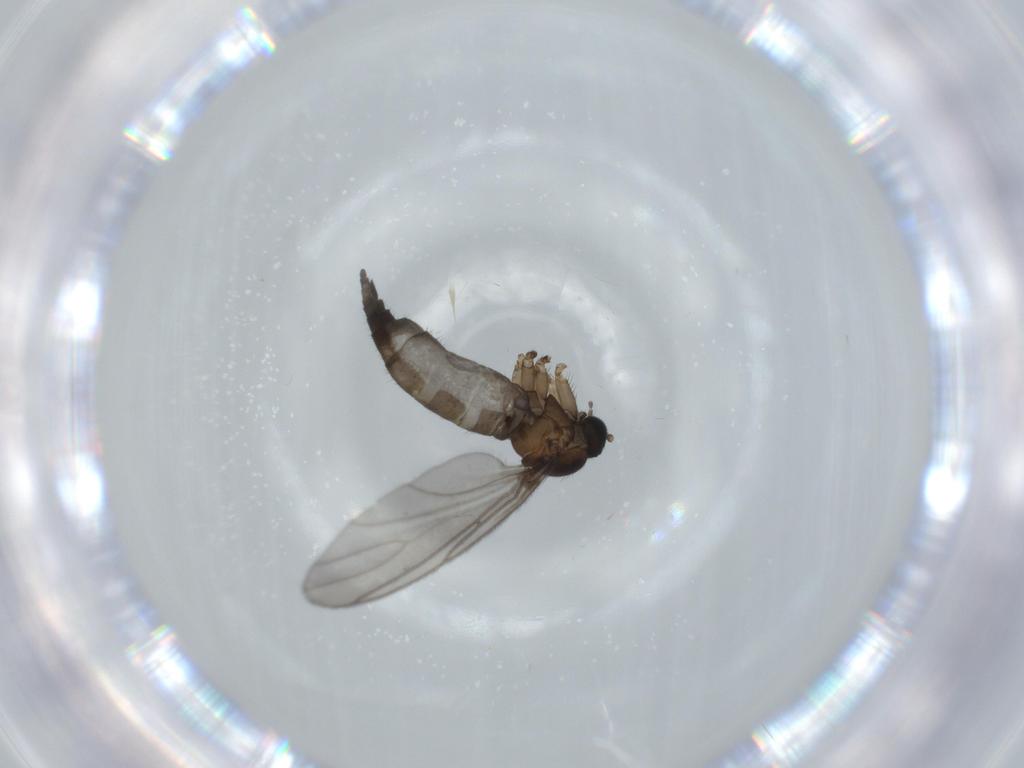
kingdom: Animalia
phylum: Arthropoda
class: Insecta
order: Diptera
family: Sciaridae
